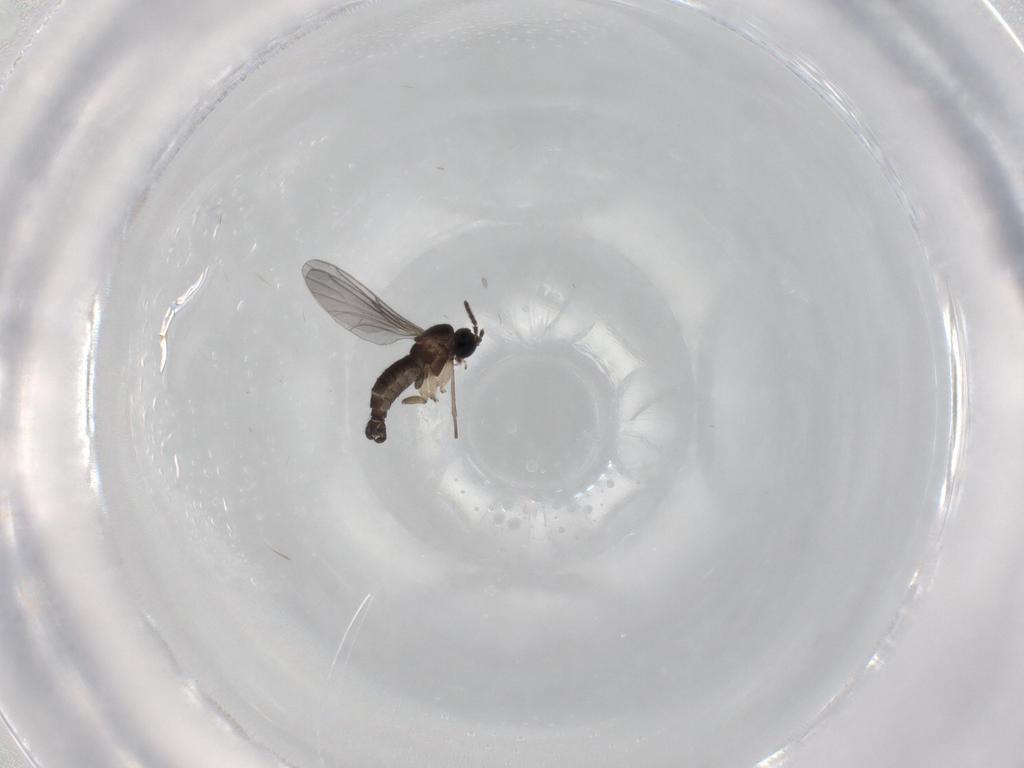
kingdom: Animalia
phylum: Arthropoda
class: Insecta
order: Diptera
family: Sciaridae
